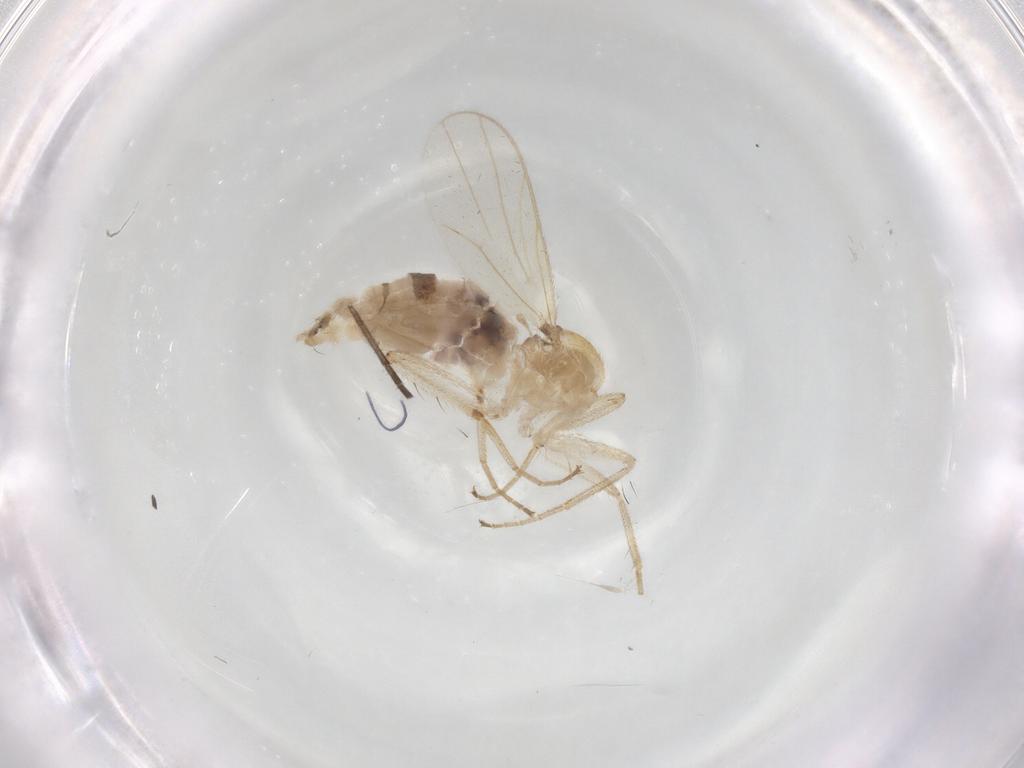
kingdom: Animalia
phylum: Arthropoda
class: Insecta
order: Diptera
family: Hybotidae
